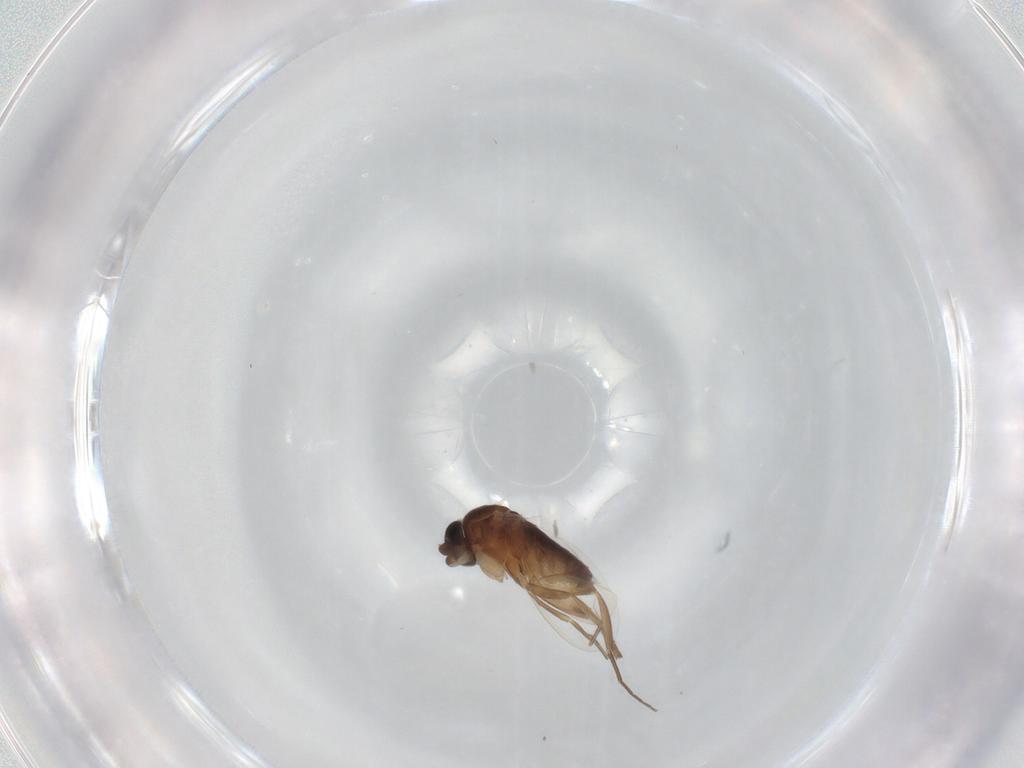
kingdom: Animalia
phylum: Arthropoda
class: Insecta
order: Diptera
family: Phoridae
